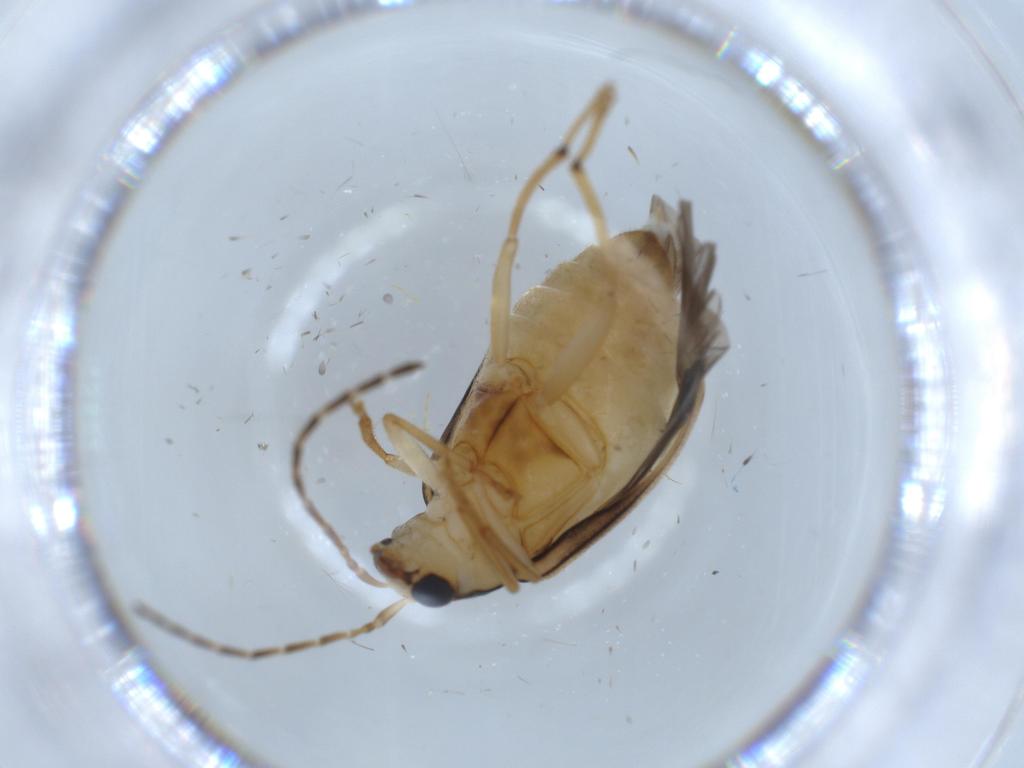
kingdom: Animalia
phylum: Arthropoda
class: Insecta
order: Coleoptera
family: Chrysomelidae
